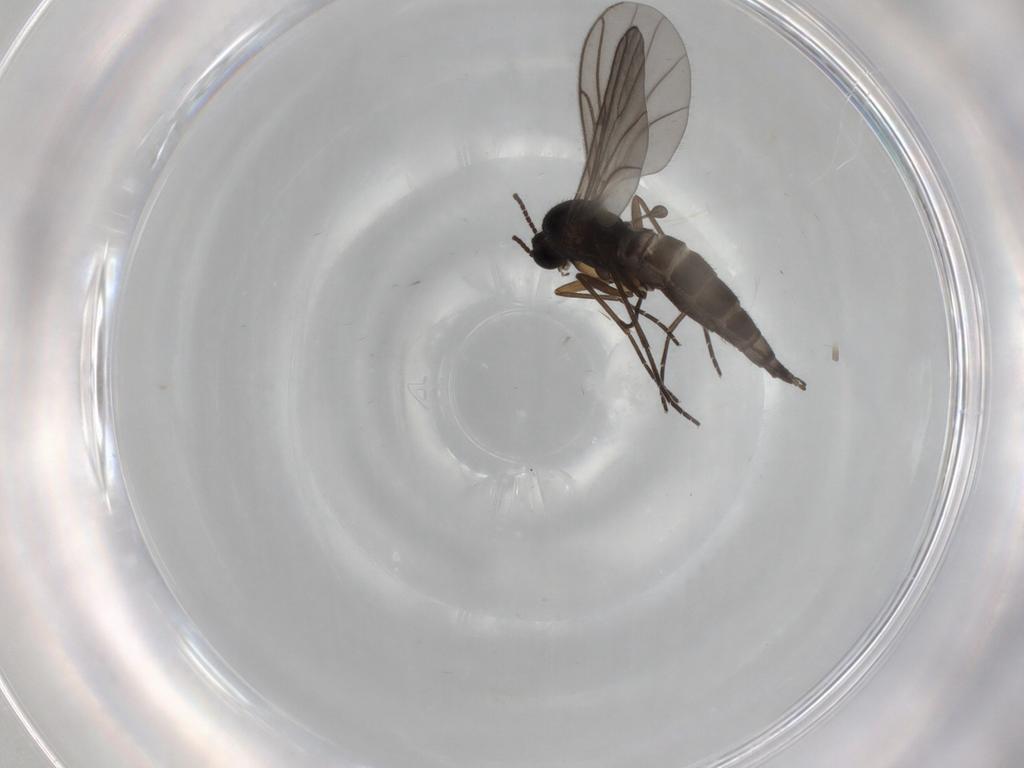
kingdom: Animalia
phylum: Arthropoda
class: Insecta
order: Diptera
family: Sciaridae
